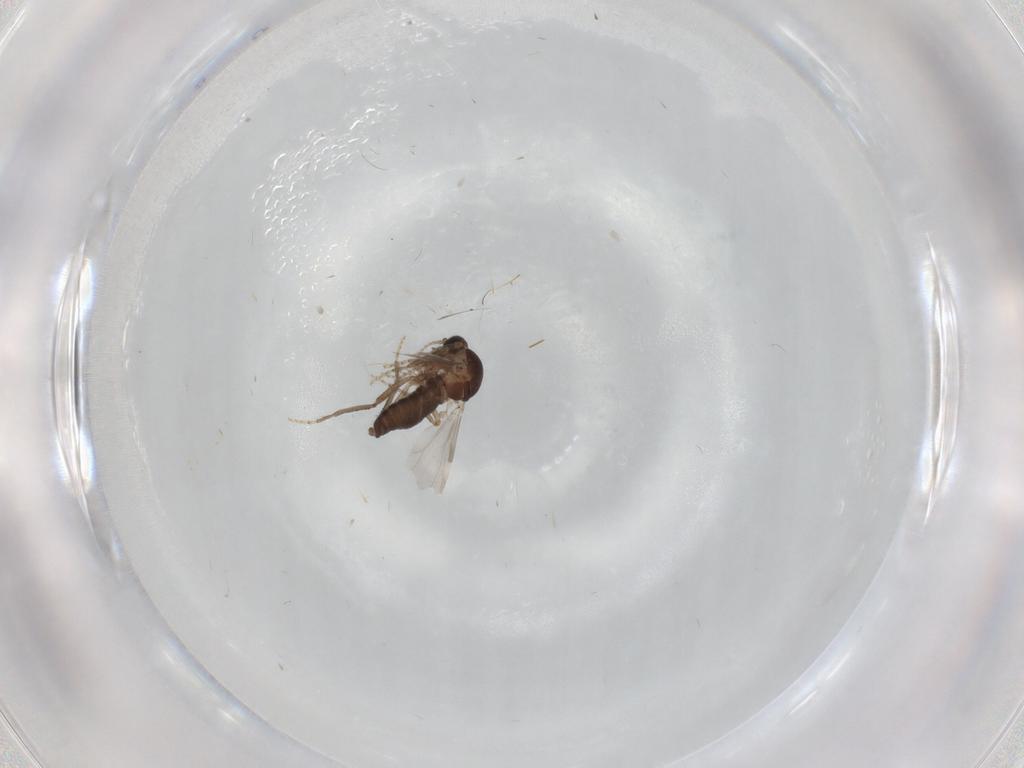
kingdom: Animalia
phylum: Arthropoda
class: Insecta
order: Diptera
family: Ceratopogonidae
